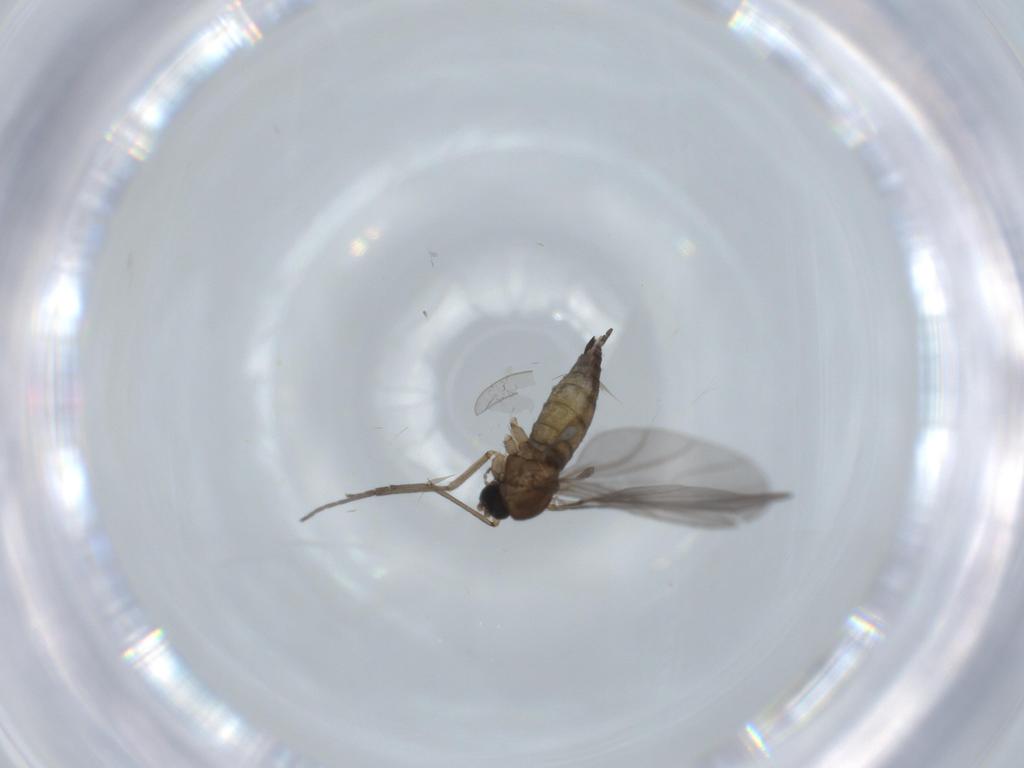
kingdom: Animalia
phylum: Arthropoda
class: Insecta
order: Diptera
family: Sciaridae
